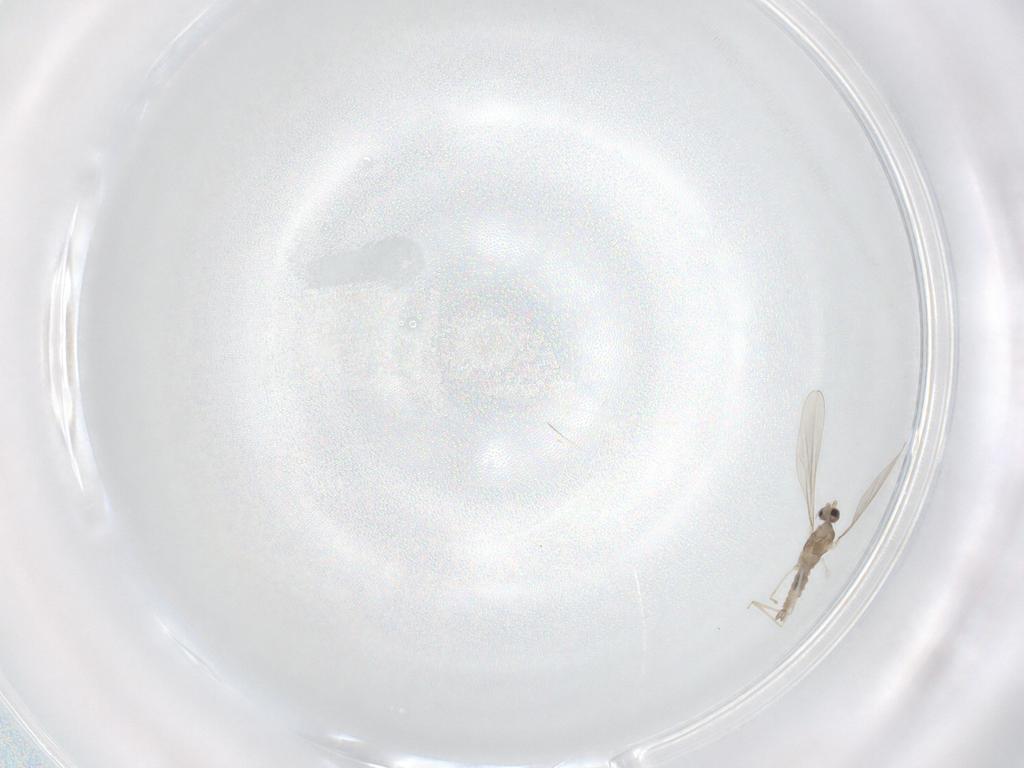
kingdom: Animalia
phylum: Arthropoda
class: Insecta
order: Diptera
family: Cecidomyiidae
